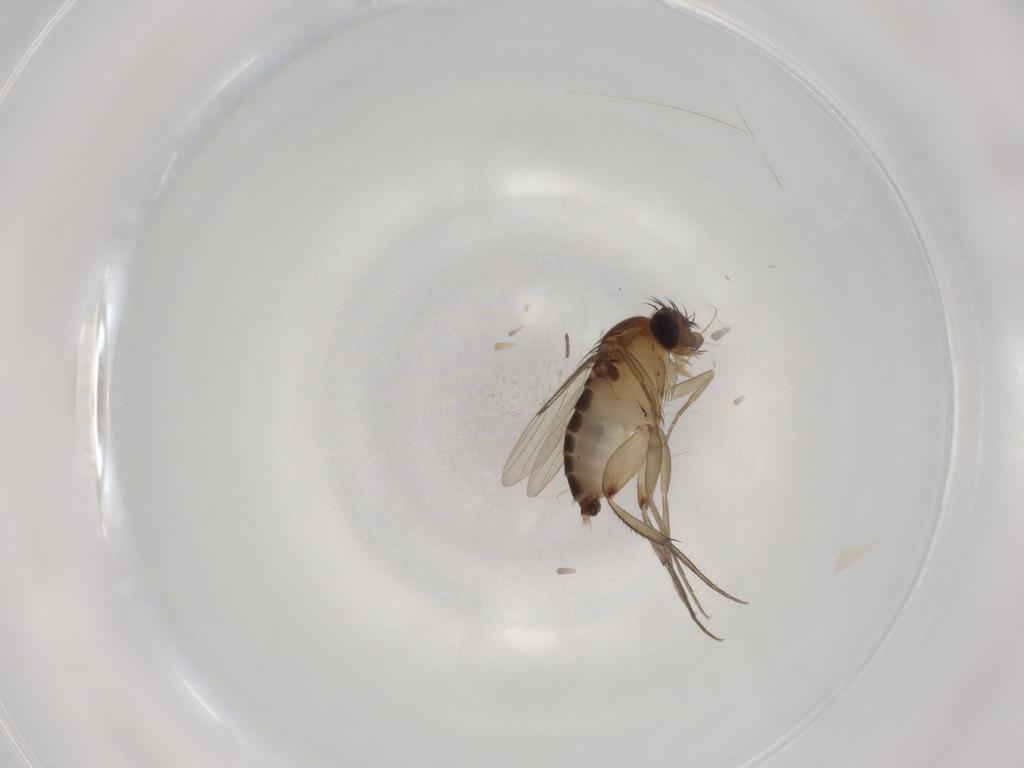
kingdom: Animalia
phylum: Arthropoda
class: Insecta
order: Diptera
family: Phoridae
